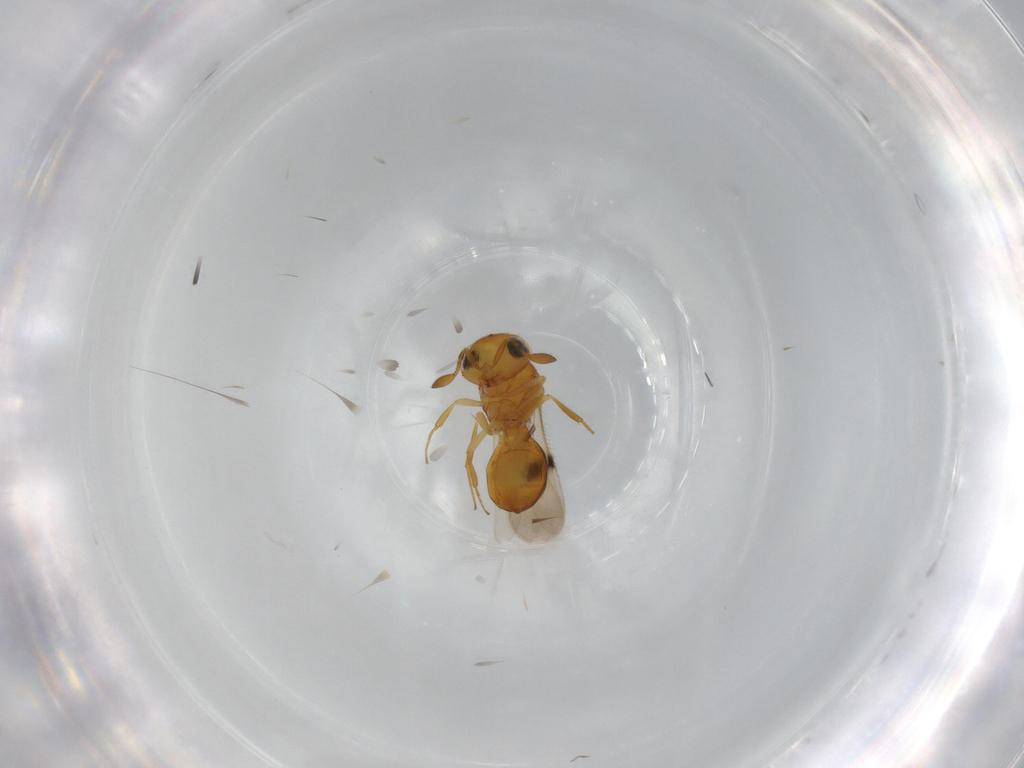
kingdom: Animalia
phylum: Arthropoda
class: Insecta
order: Hymenoptera
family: Scelionidae
